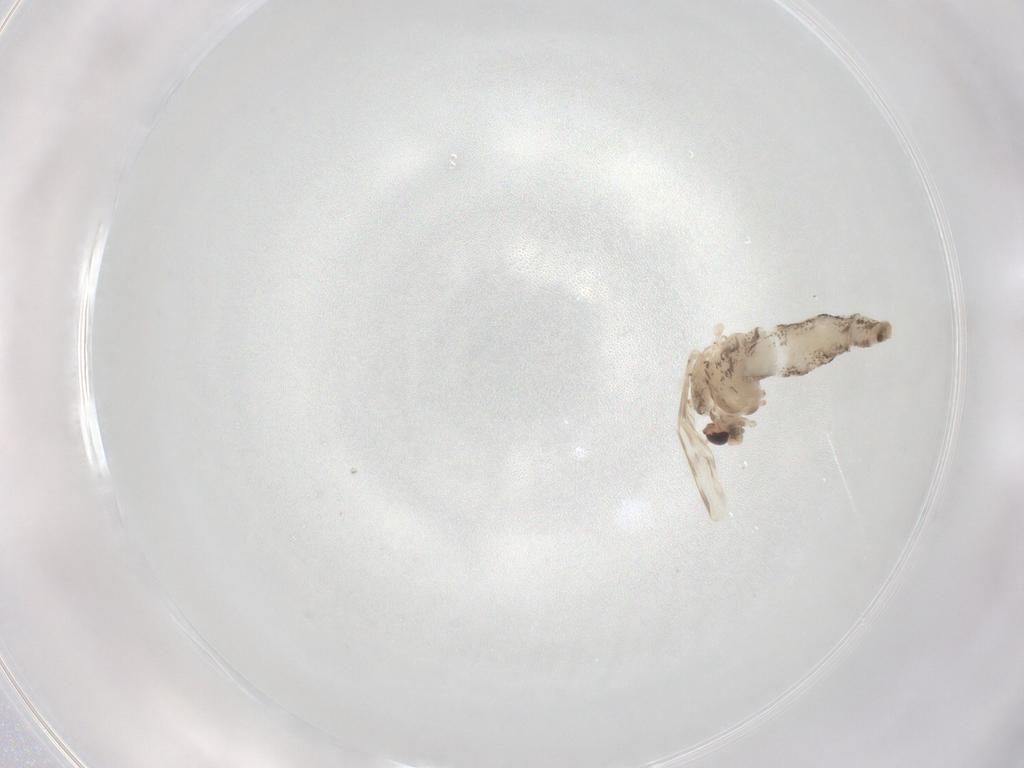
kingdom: Animalia
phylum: Arthropoda
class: Insecta
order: Diptera
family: Chaoboridae
